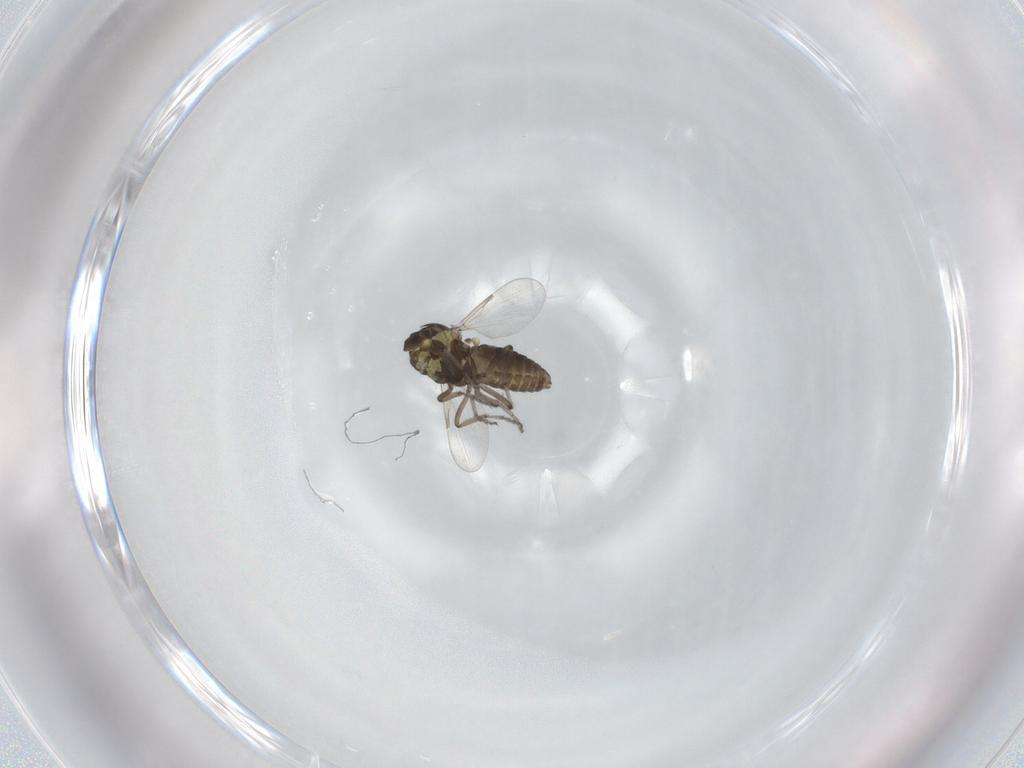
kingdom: Animalia
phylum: Arthropoda
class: Insecta
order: Diptera
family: Ceratopogonidae
